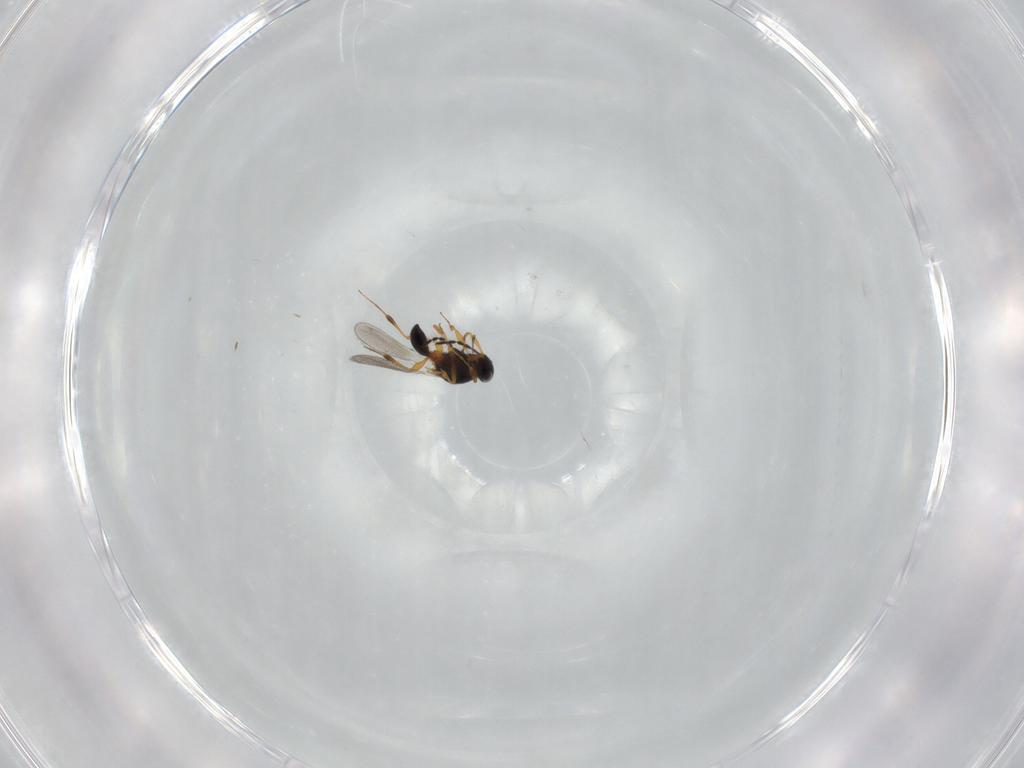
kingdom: Animalia
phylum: Arthropoda
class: Insecta
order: Hymenoptera
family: Platygastridae
